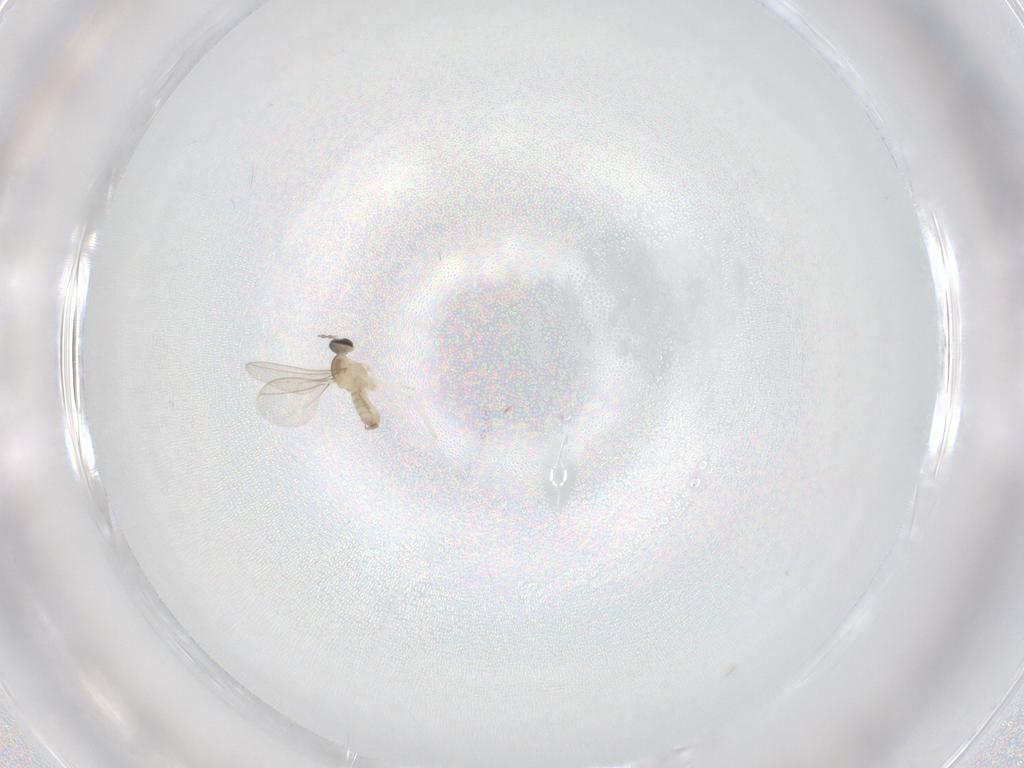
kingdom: Animalia
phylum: Arthropoda
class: Insecta
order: Diptera
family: Cecidomyiidae
